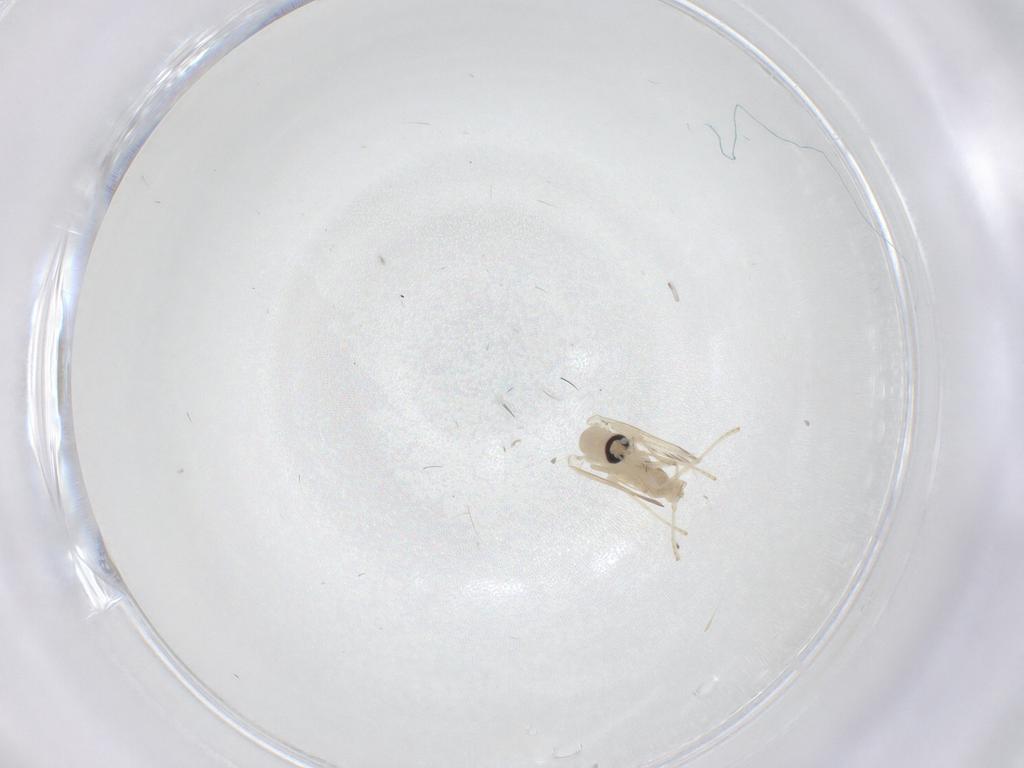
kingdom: Animalia
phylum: Arthropoda
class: Insecta
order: Diptera
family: Psychodidae
